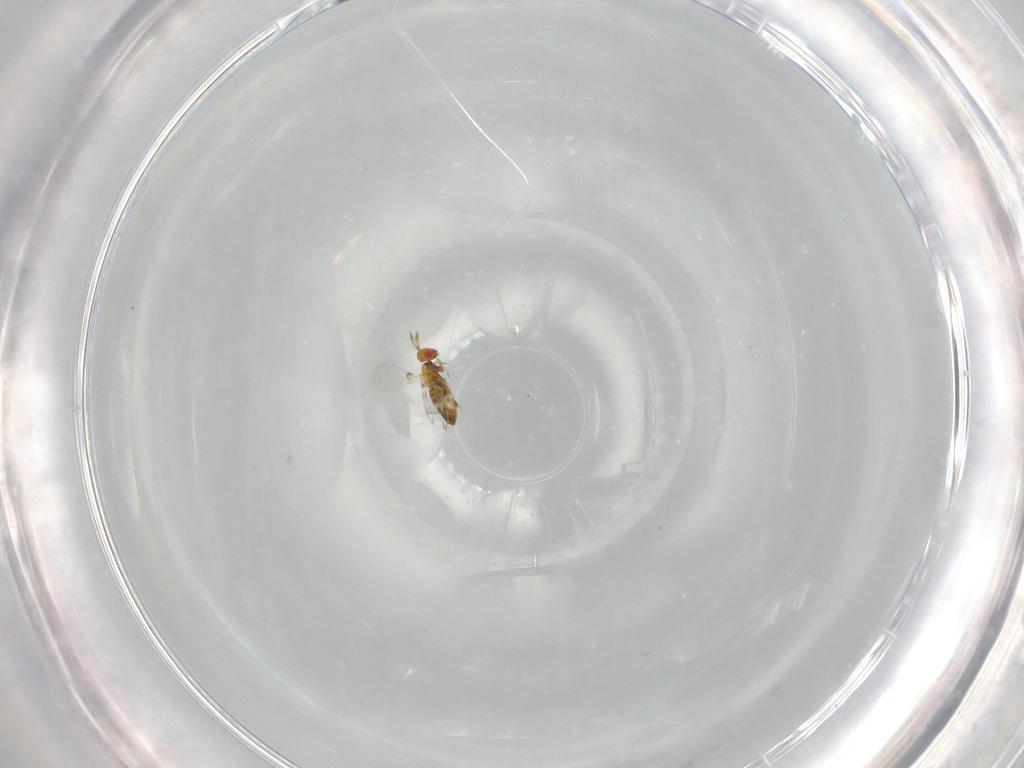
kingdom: Animalia
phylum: Arthropoda
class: Insecta
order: Hymenoptera
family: Trichogrammatidae
